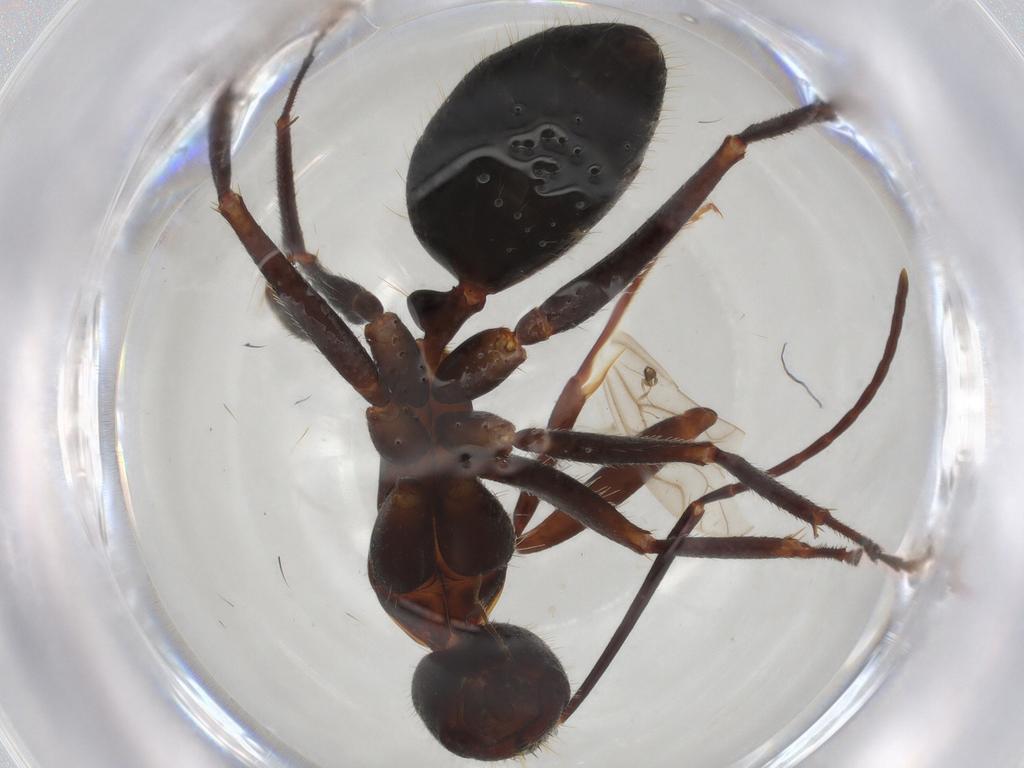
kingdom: Animalia
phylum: Arthropoda
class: Insecta
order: Hymenoptera
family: Formicidae
